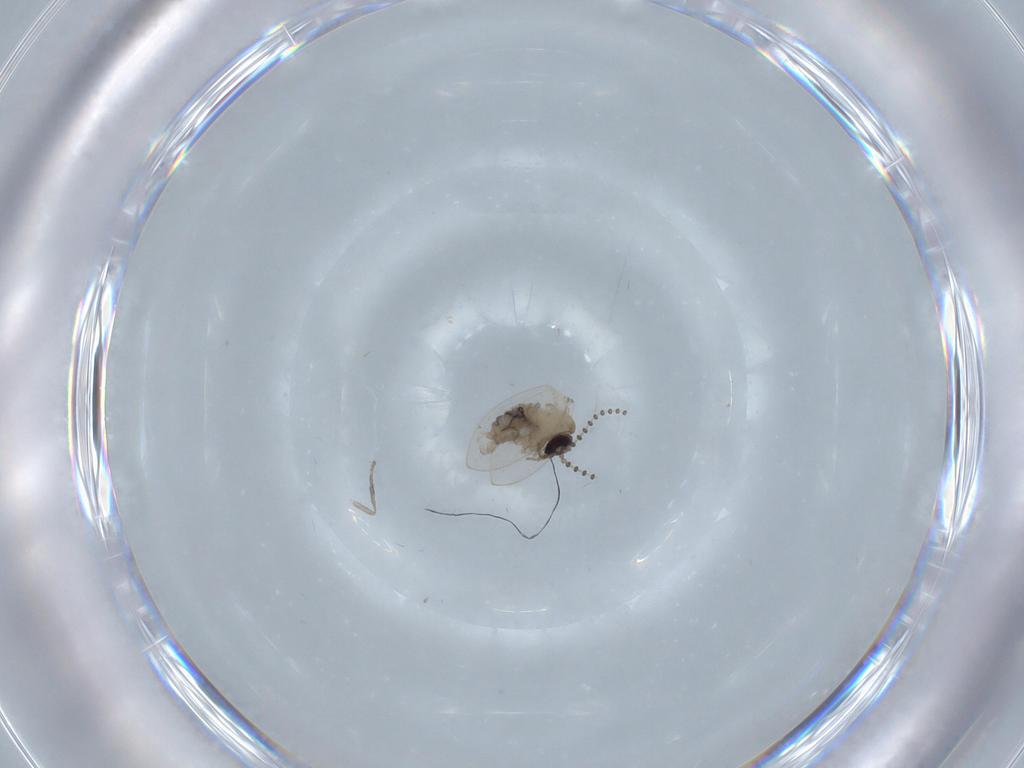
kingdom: Animalia
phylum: Arthropoda
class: Insecta
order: Diptera
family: Psychodidae
